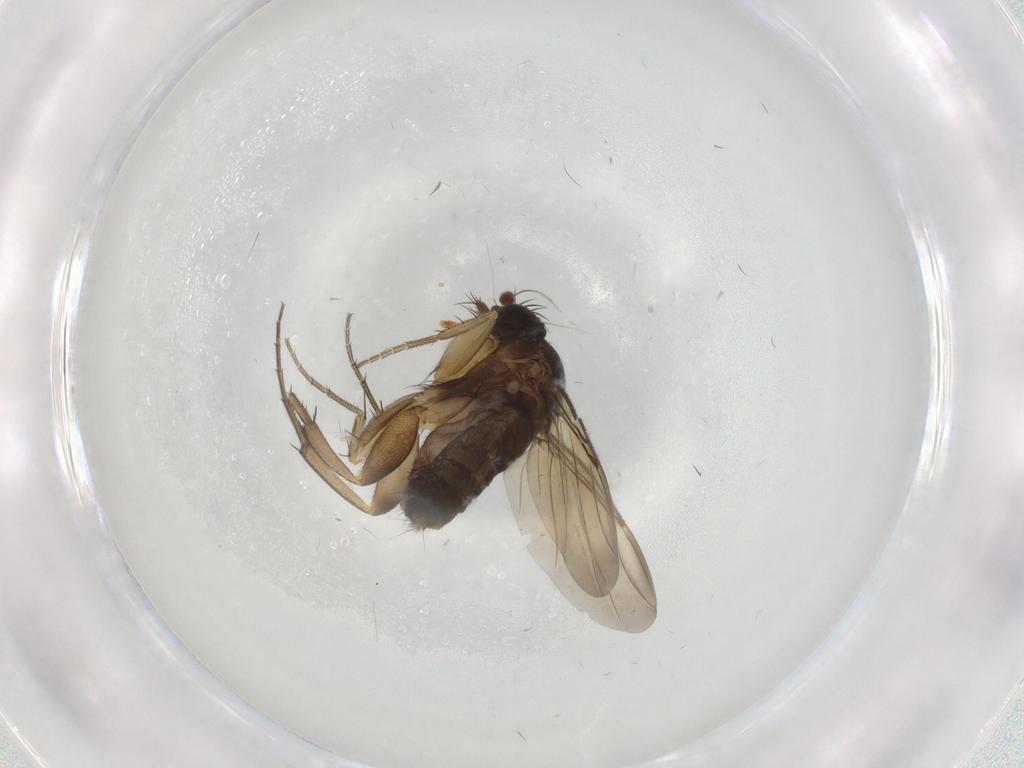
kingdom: Animalia
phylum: Arthropoda
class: Insecta
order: Diptera
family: Phoridae
